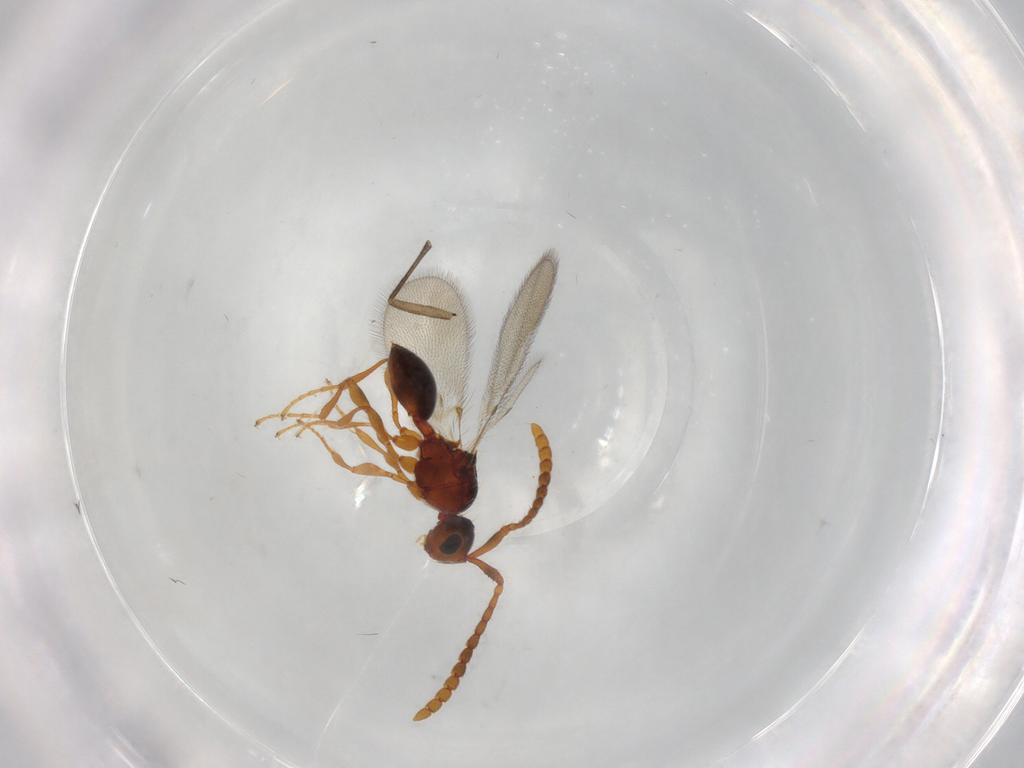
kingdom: Animalia
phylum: Arthropoda
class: Insecta
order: Hymenoptera
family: Diapriidae
